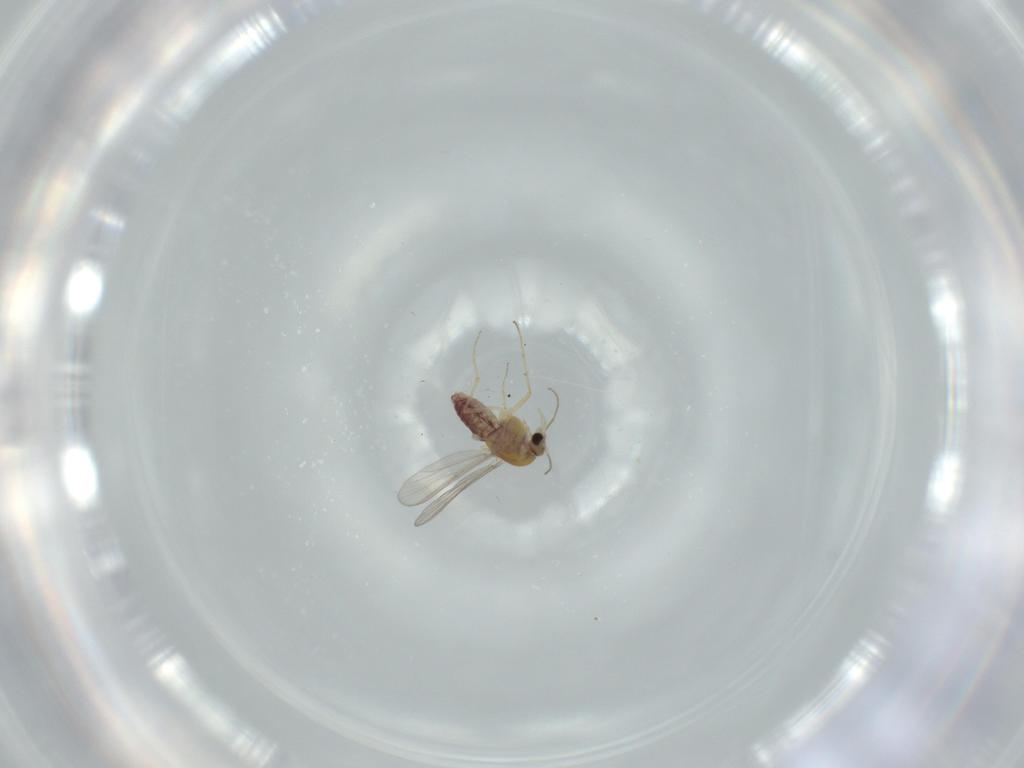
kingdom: Animalia
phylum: Arthropoda
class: Insecta
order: Diptera
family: Chironomidae
